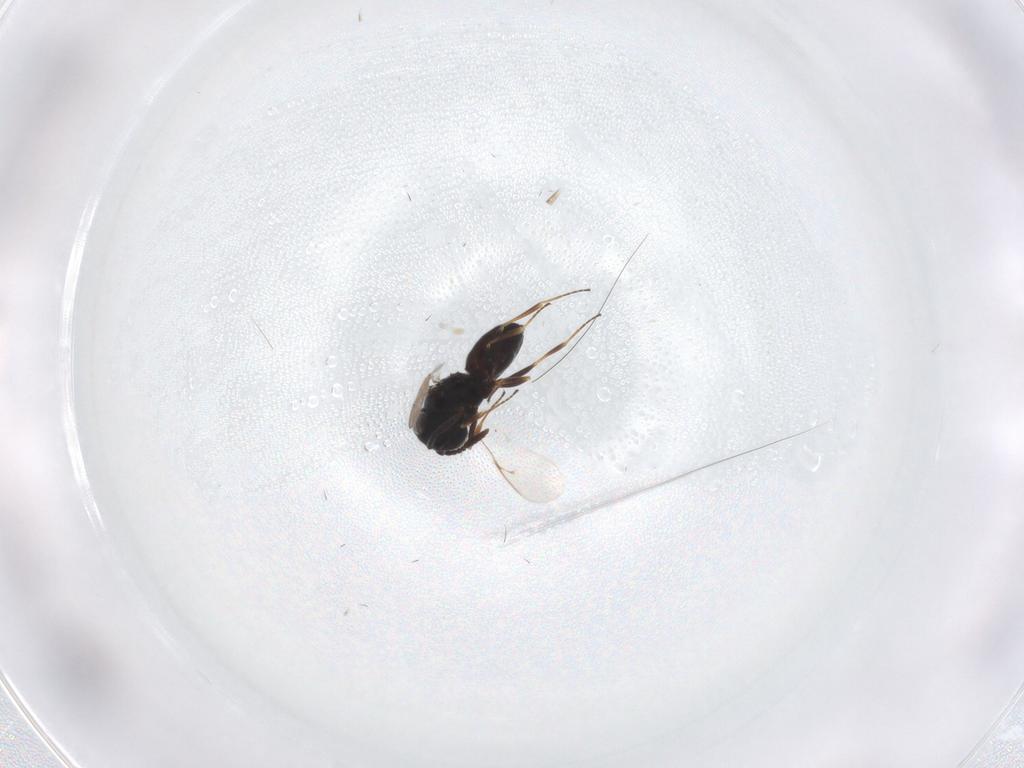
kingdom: Animalia
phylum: Arthropoda
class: Insecta
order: Hymenoptera
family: Scelionidae
